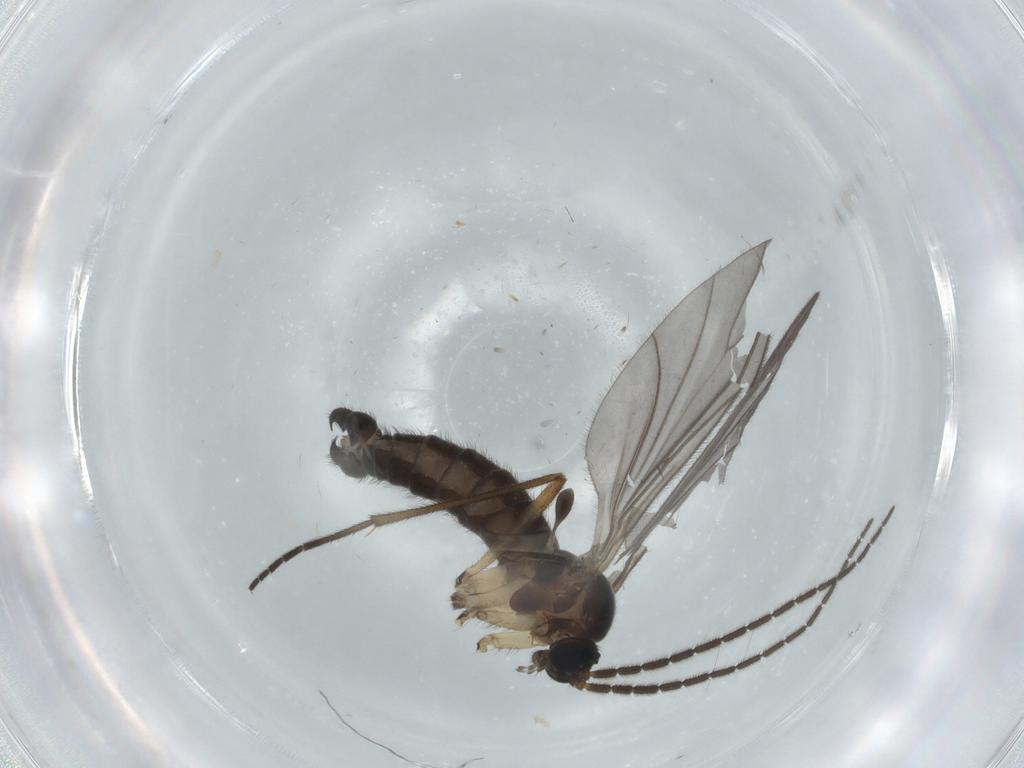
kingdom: Animalia
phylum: Arthropoda
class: Insecta
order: Diptera
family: Sciaridae
